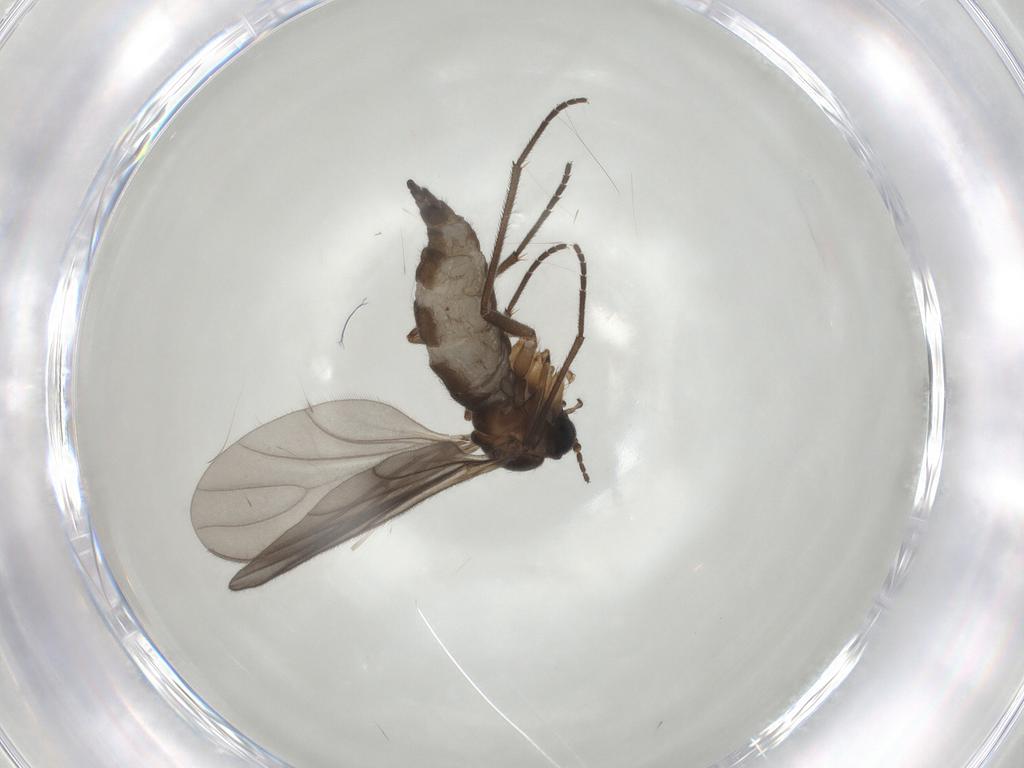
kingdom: Animalia
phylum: Arthropoda
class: Insecta
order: Diptera
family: Sciaridae
